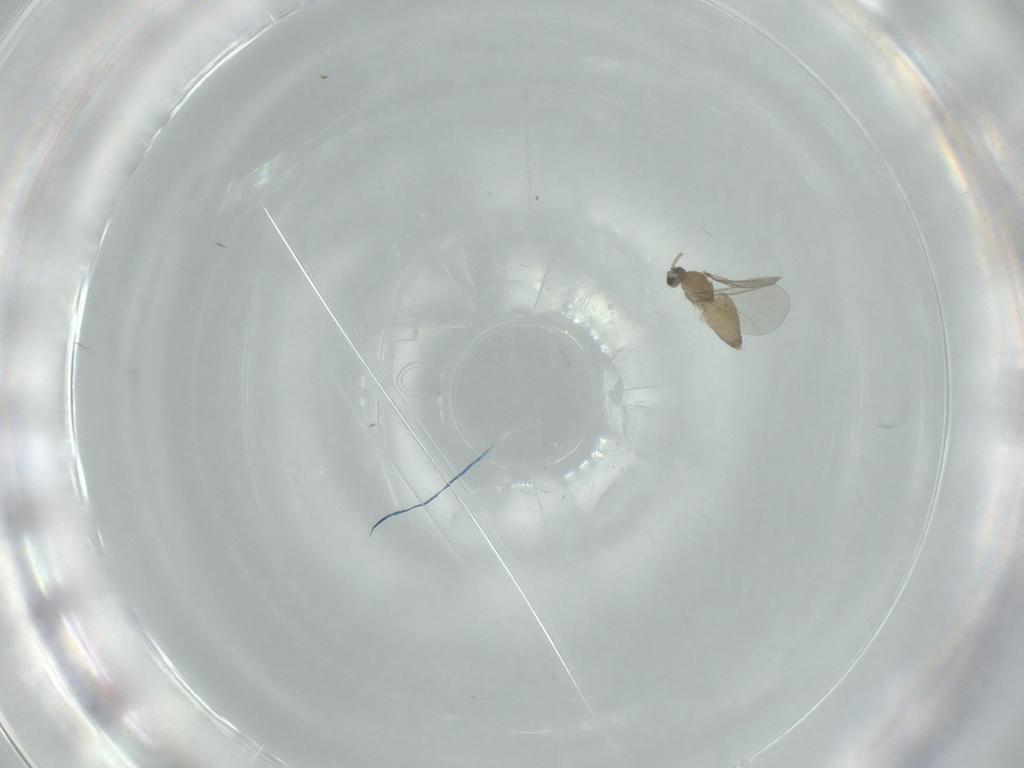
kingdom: Animalia
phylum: Arthropoda
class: Insecta
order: Diptera
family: Cecidomyiidae
